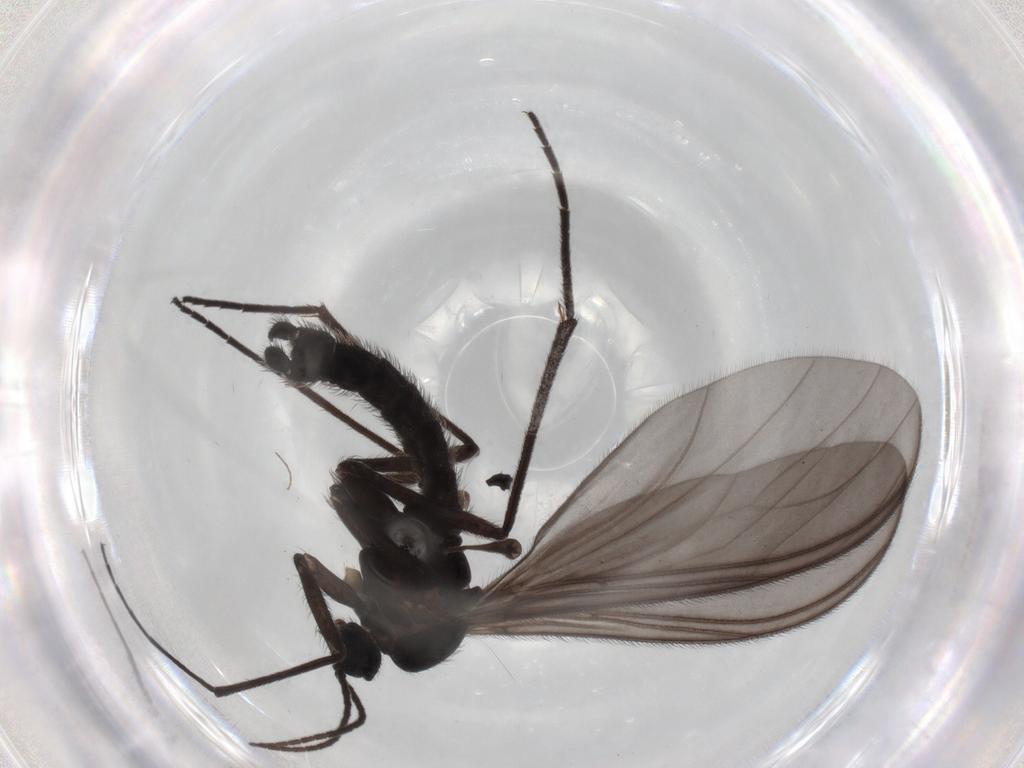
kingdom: Animalia
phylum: Arthropoda
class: Insecta
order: Diptera
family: Sciaridae
